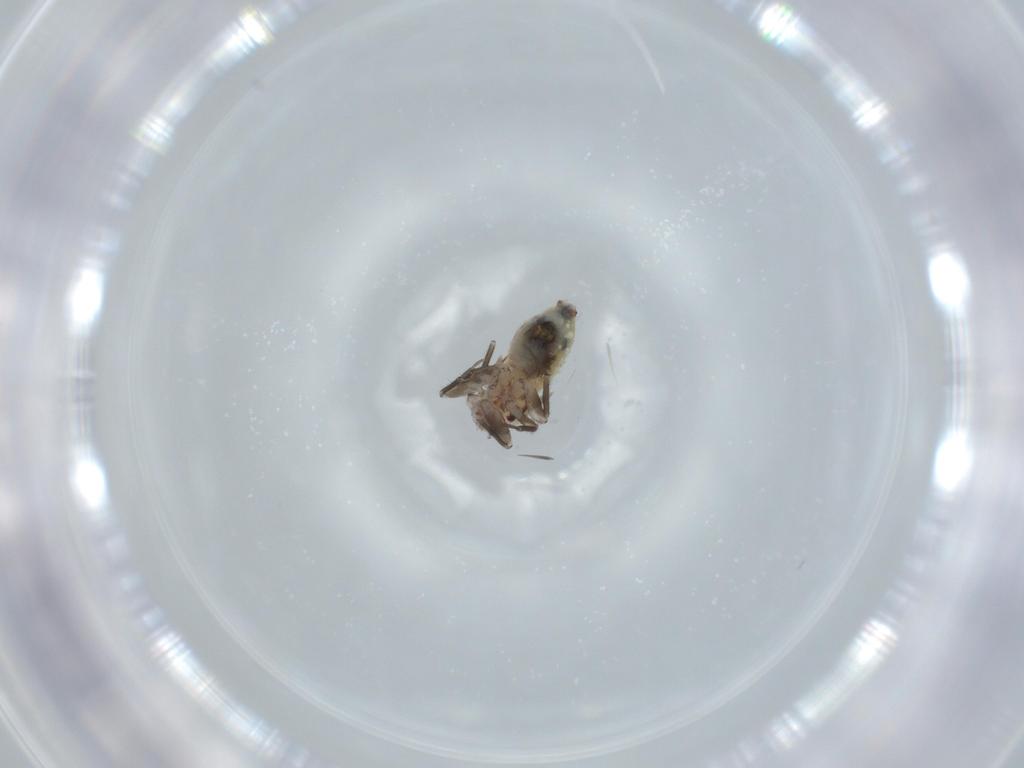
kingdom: Animalia
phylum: Arthropoda
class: Insecta
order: Psocodea
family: Lepidopsocidae
